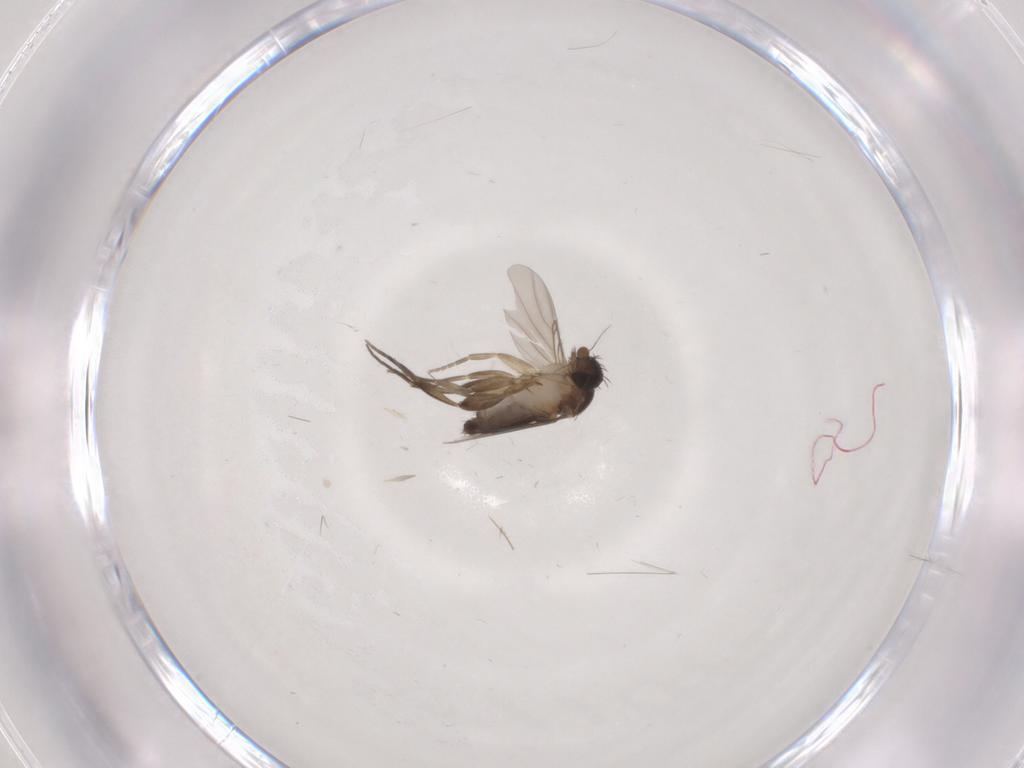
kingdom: Animalia
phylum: Arthropoda
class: Insecta
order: Diptera
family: Phoridae
